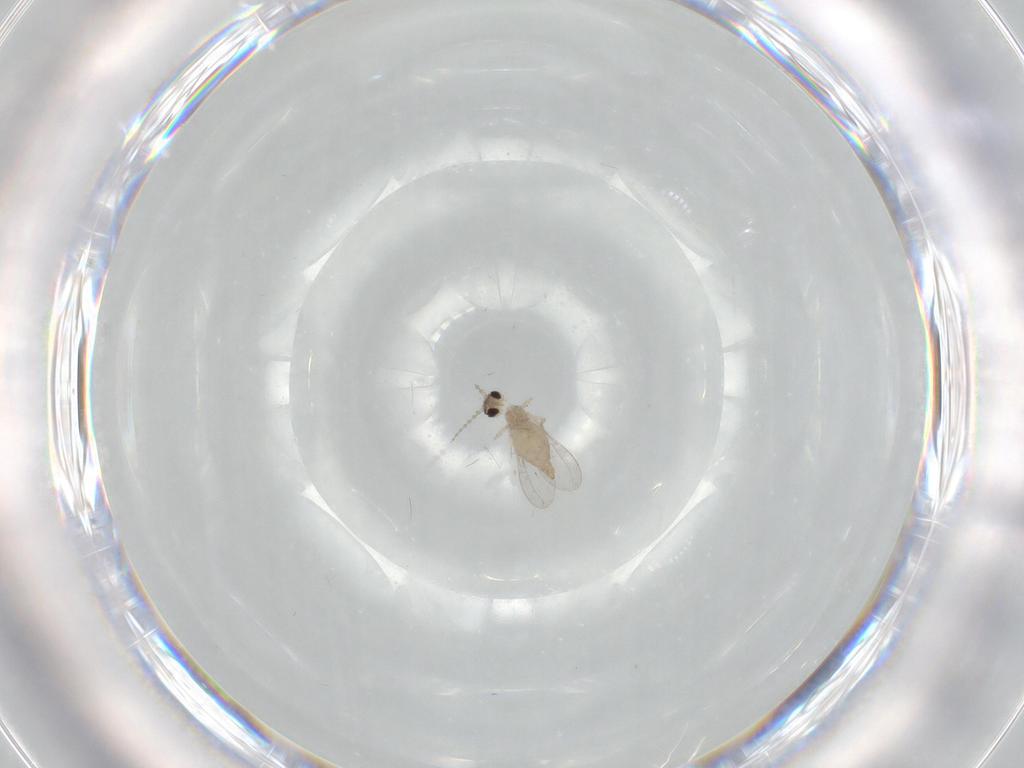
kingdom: Animalia
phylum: Arthropoda
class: Insecta
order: Diptera
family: Cecidomyiidae
